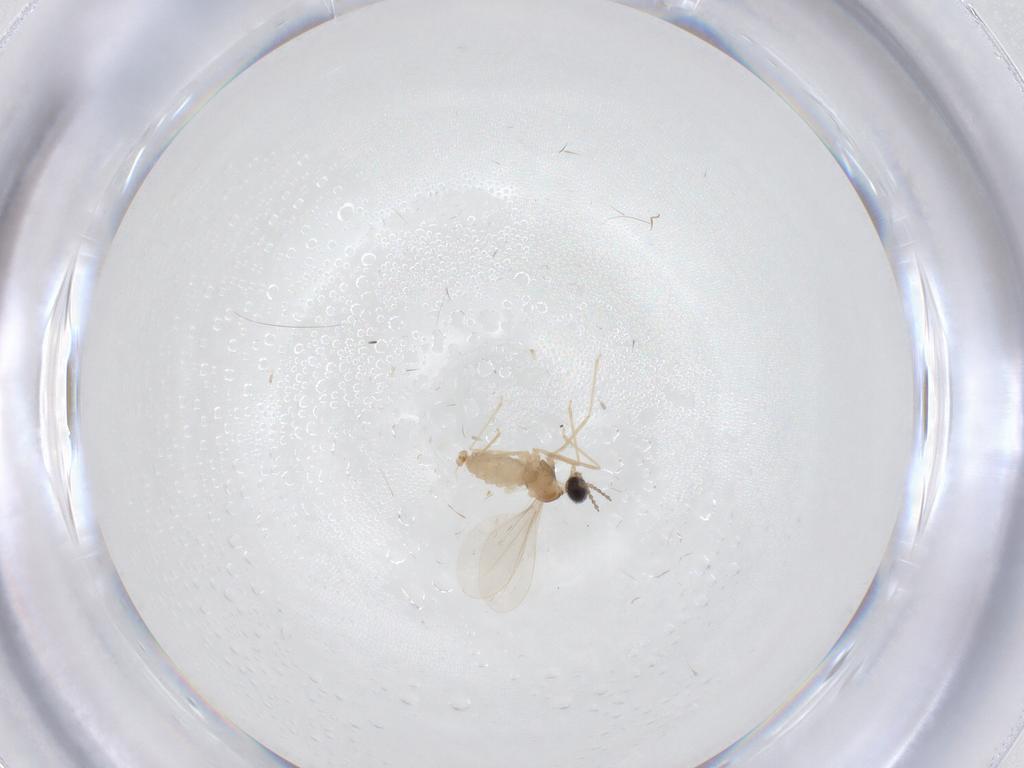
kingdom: Animalia
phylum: Arthropoda
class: Insecta
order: Diptera
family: Cecidomyiidae
